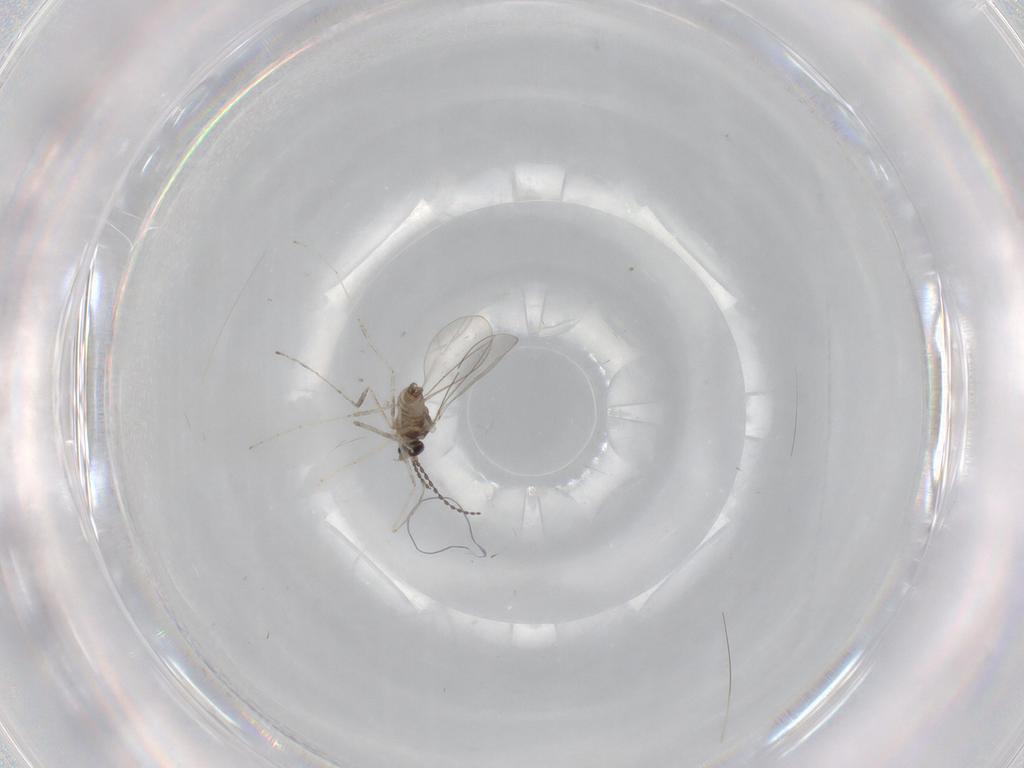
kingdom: Animalia
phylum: Arthropoda
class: Insecta
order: Diptera
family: Cecidomyiidae
